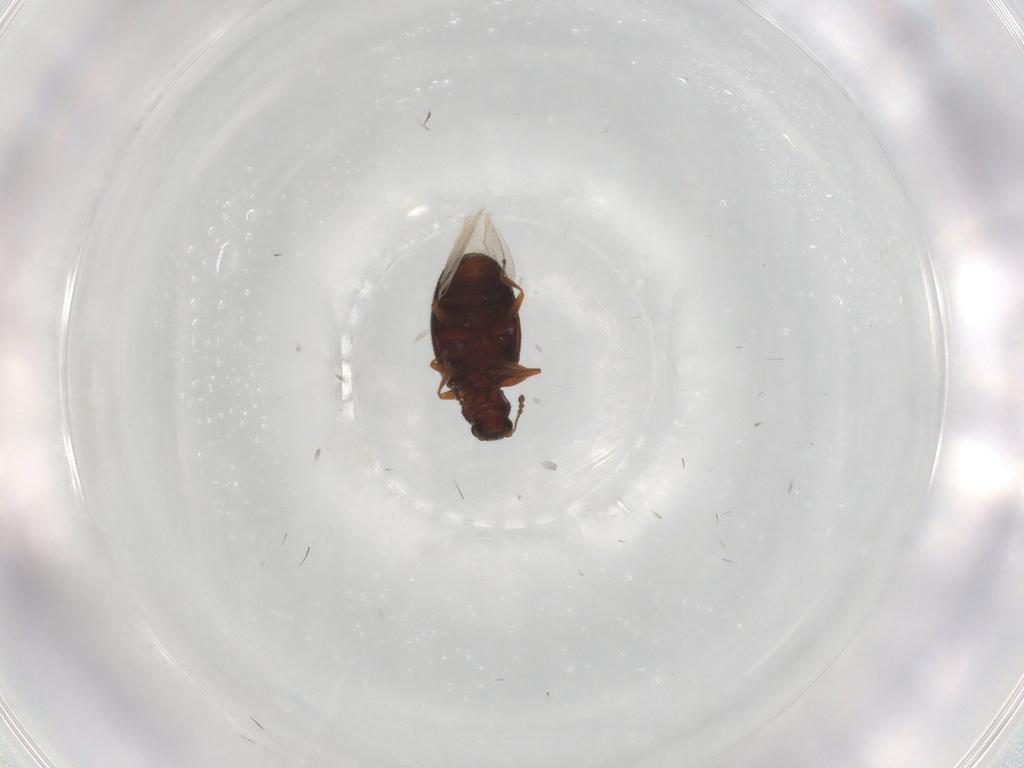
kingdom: Animalia
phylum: Arthropoda
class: Insecta
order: Coleoptera
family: Latridiidae
